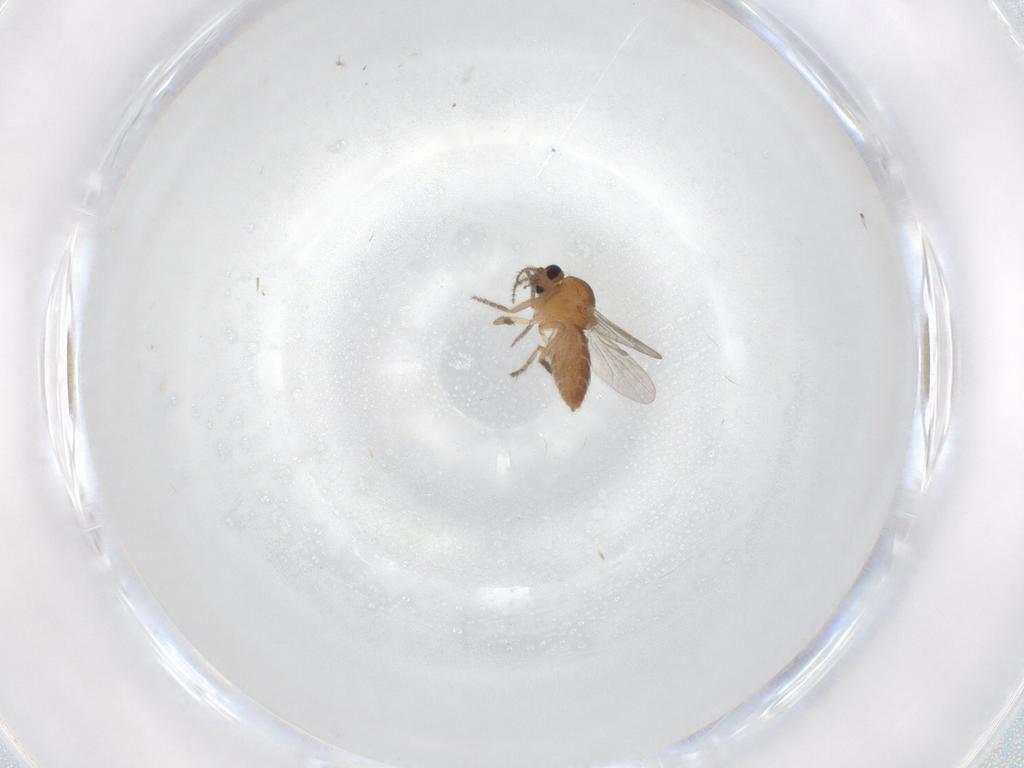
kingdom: Animalia
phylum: Arthropoda
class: Insecta
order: Diptera
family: Ceratopogonidae
